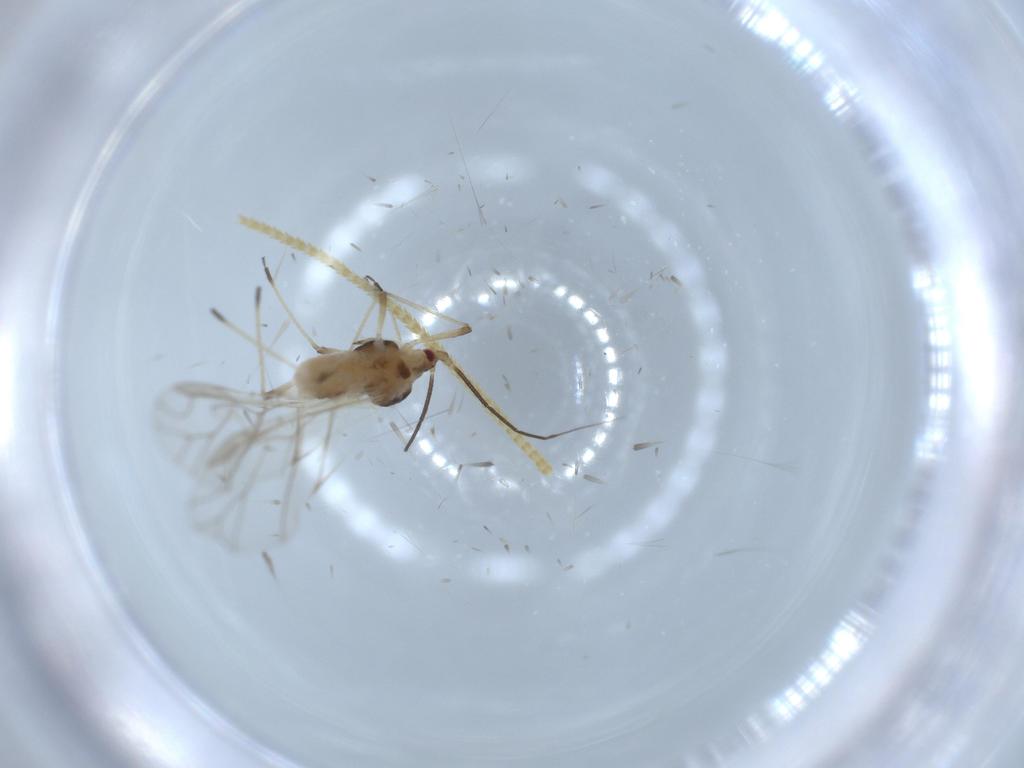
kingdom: Animalia
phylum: Arthropoda
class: Insecta
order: Hemiptera
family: Aphididae
